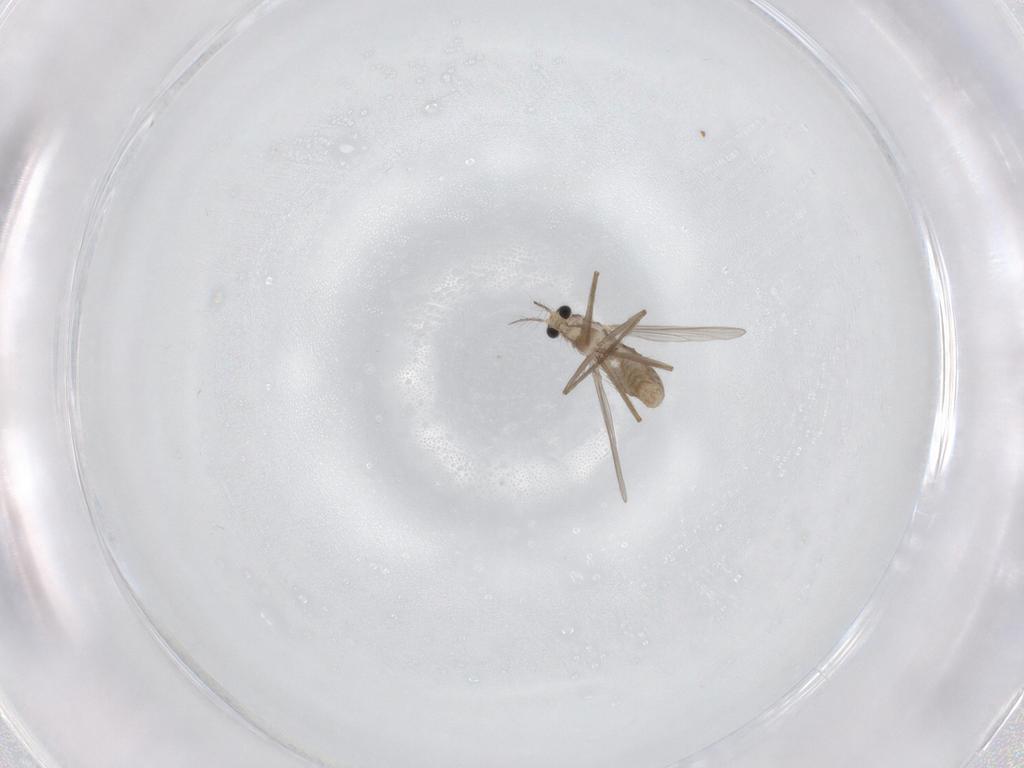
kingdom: Animalia
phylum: Arthropoda
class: Insecta
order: Diptera
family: Chironomidae
